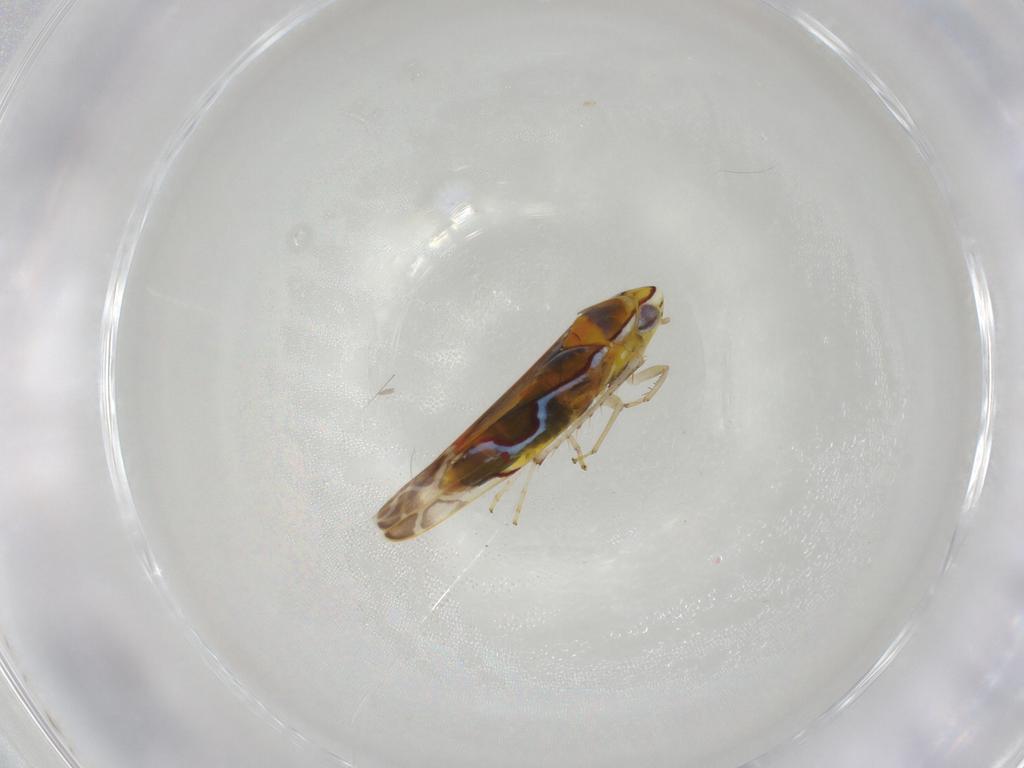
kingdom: Animalia
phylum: Arthropoda
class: Insecta
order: Hemiptera
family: Cicadellidae
